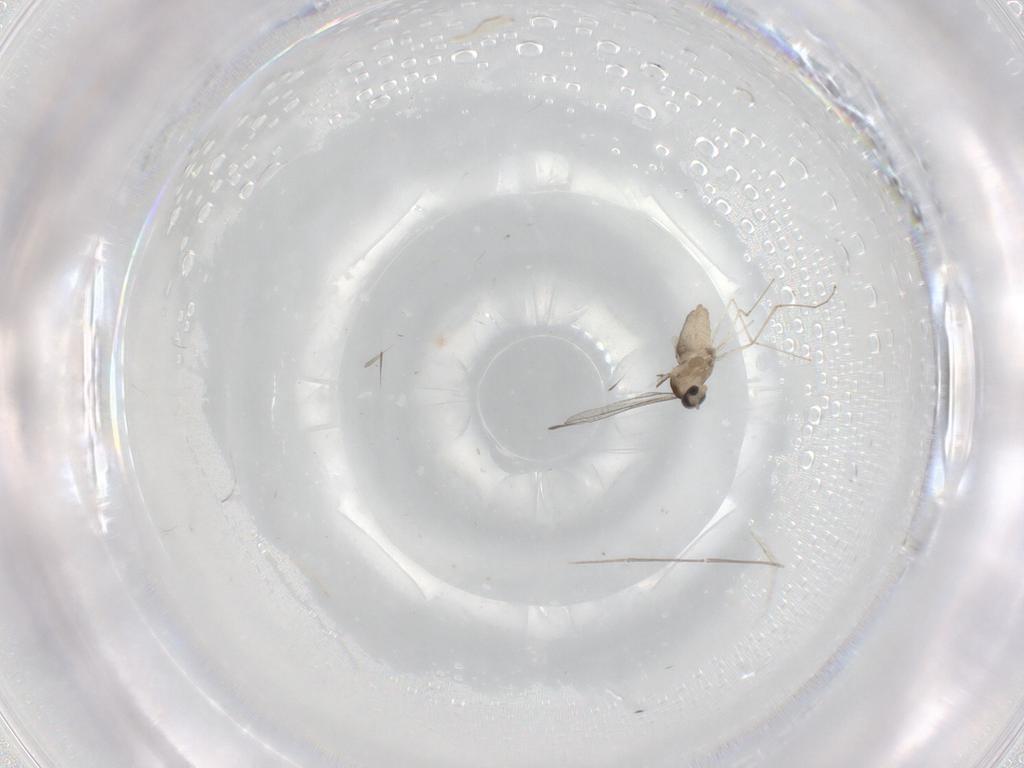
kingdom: Animalia
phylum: Arthropoda
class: Insecta
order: Diptera
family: Cecidomyiidae
